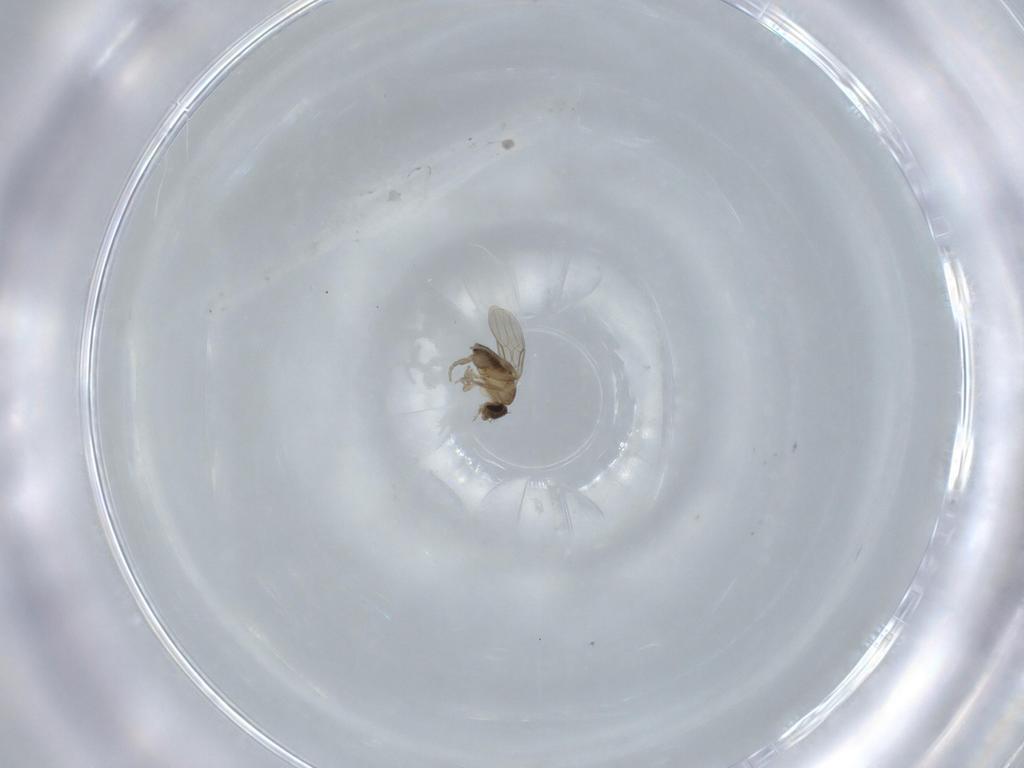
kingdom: Animalia
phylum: Arthropoda
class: Insecta
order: Diptera
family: Phoridae
